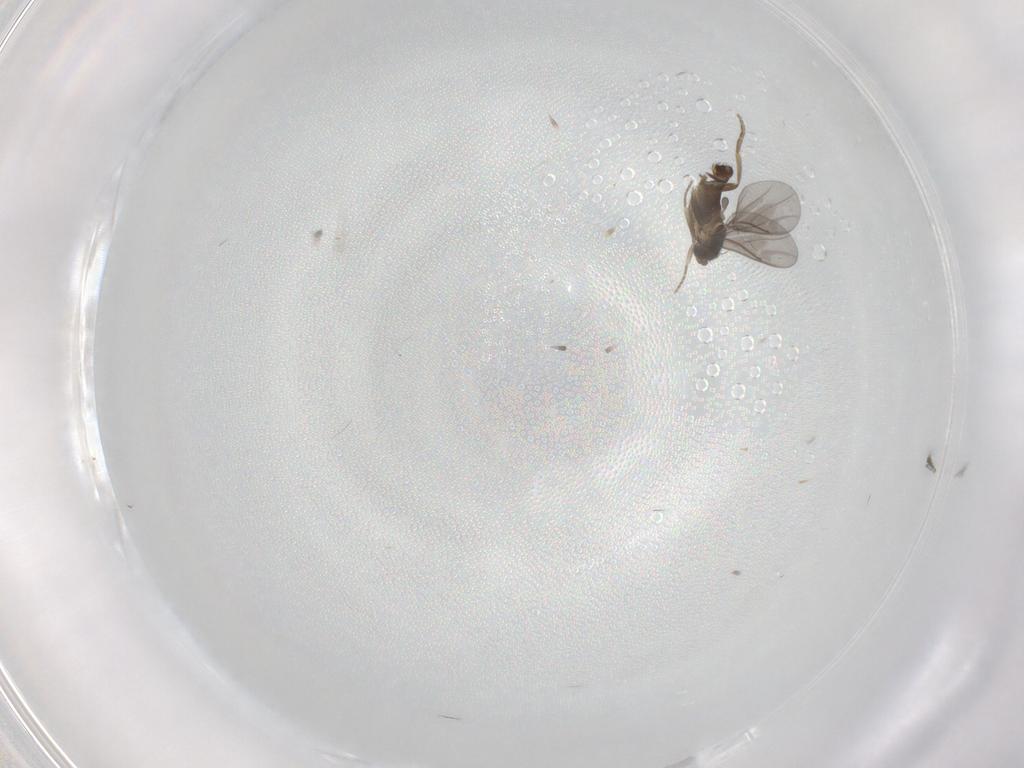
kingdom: Animalia
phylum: Arthropoda
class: Insecta
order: Diptera
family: Phoridae
